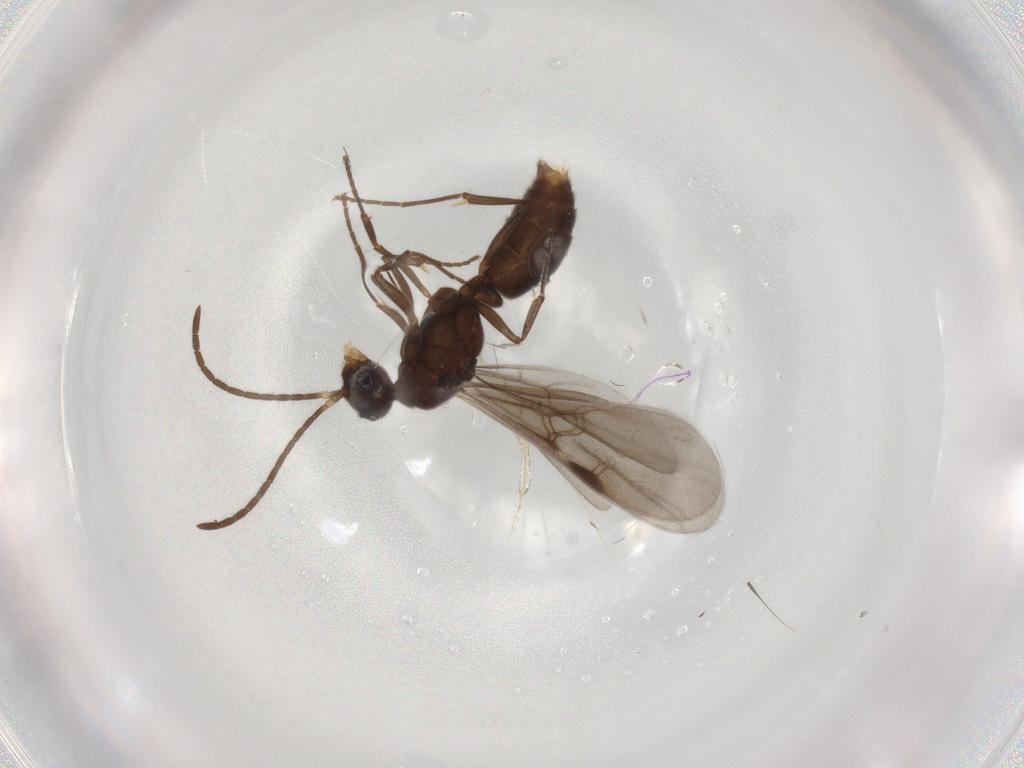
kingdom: Animalia
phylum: Arthropoda
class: Insecta
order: Hymenoptera
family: Formicidae
